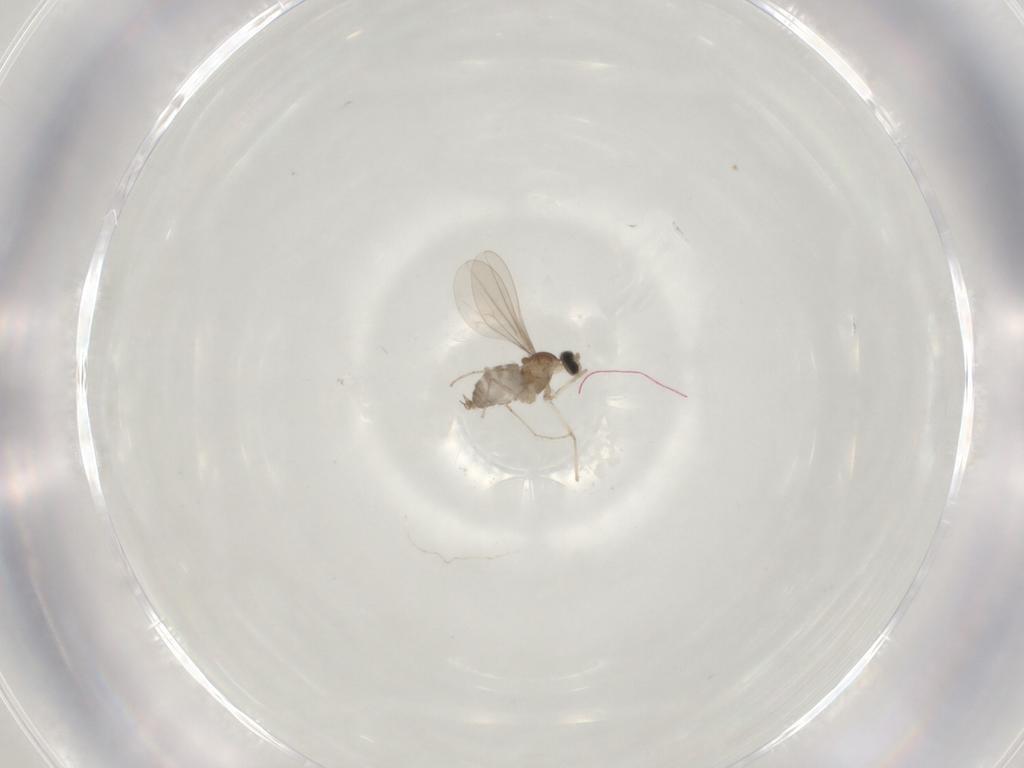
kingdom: Animalia
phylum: Arthropoda
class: Insecta
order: Diptera
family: Cecidomyiidae
